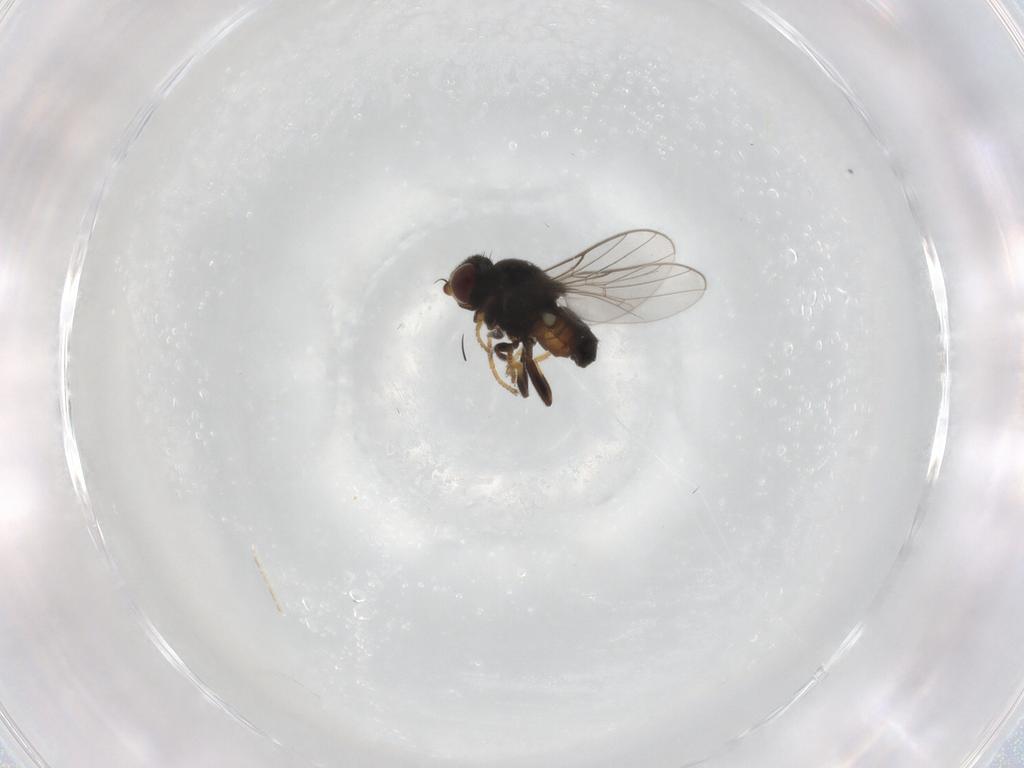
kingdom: Animalia
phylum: Arthropoda
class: Insecta
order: Diptera
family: Chloropidae
